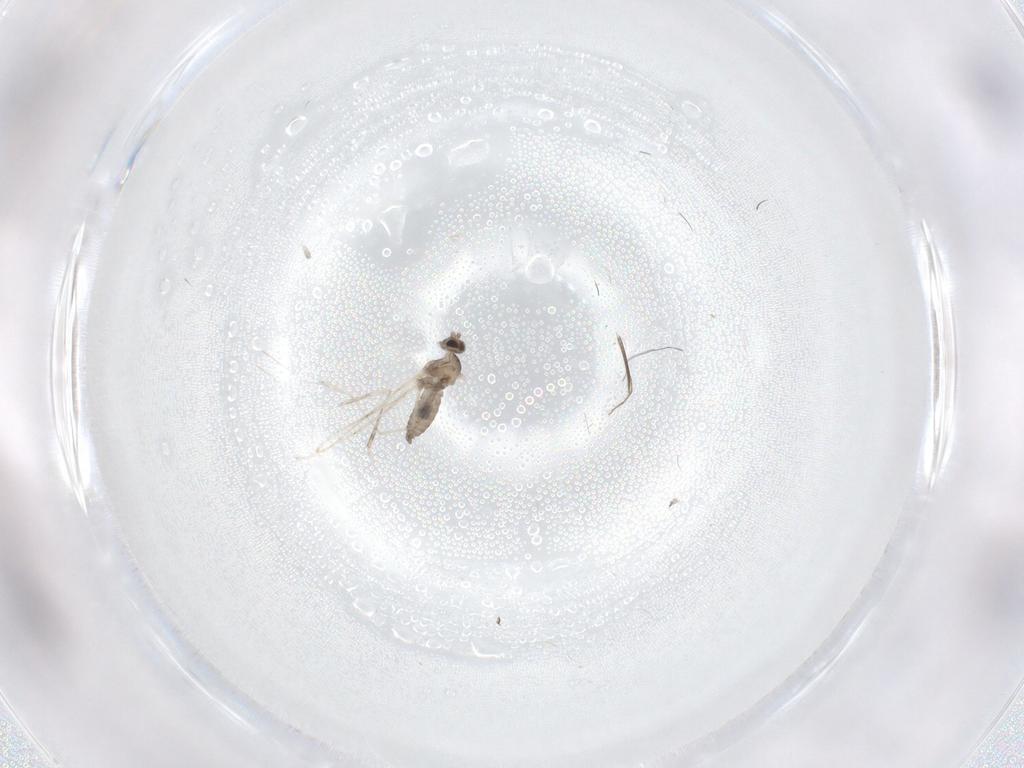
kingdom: Animalia
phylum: Arthropoda
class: Insecta
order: Diptera
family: Cecidomyiidae
